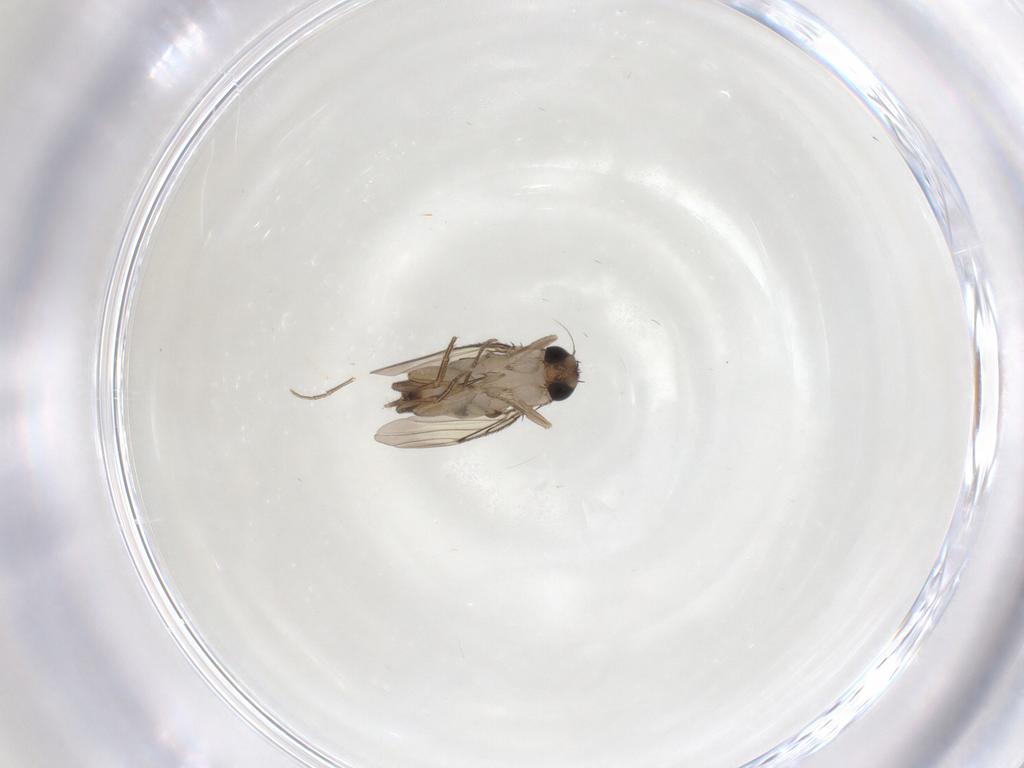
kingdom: Animalia
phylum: Arthropoda
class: Insecta
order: Diptera
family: Phoridae
